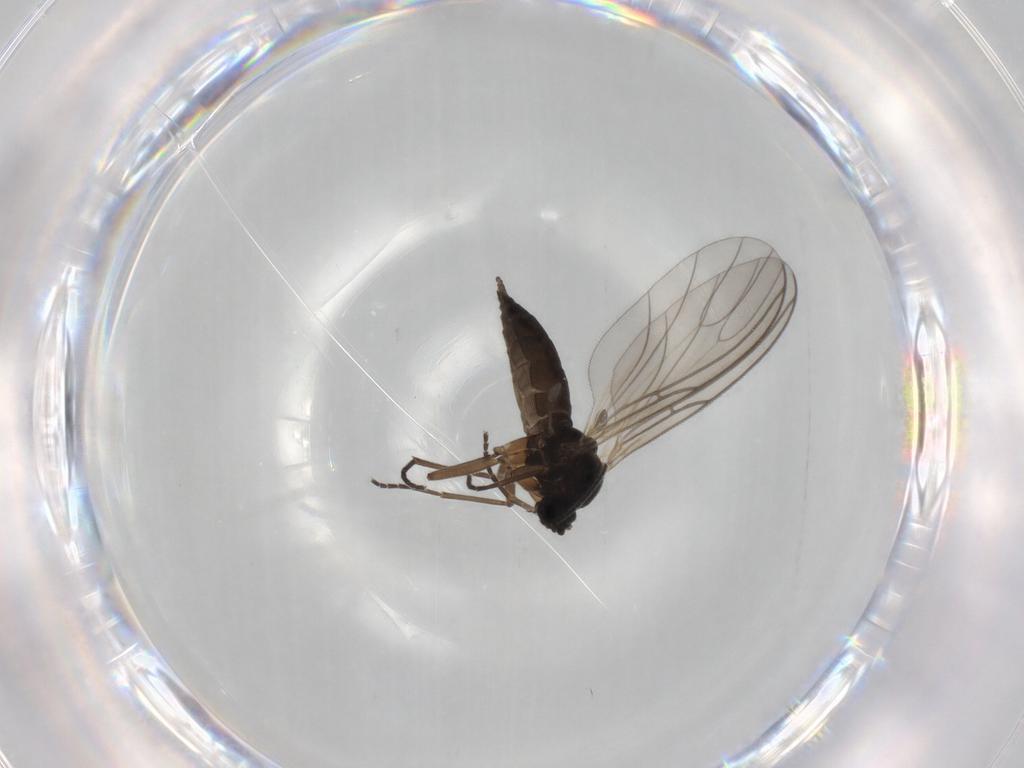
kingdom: Animalia
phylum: Arthropoda
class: Insecta
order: Diptera
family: Sciaridae
